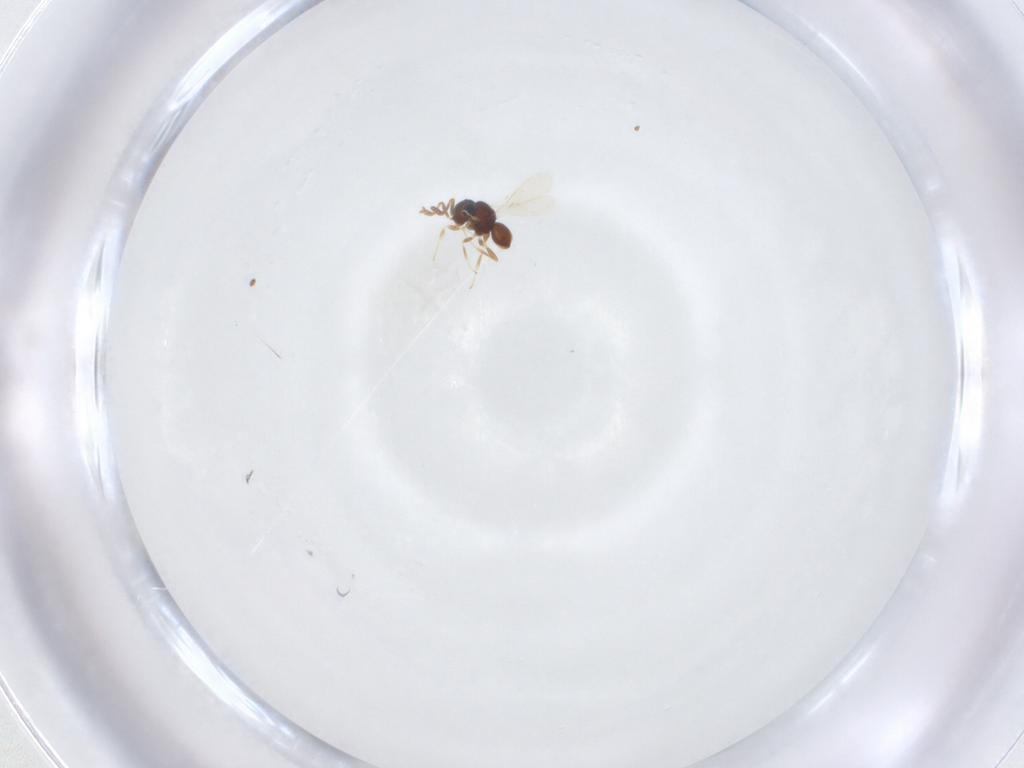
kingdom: Animalia
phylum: Arthropoda
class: Insecta
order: Hymenoptera
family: Scelionidae
